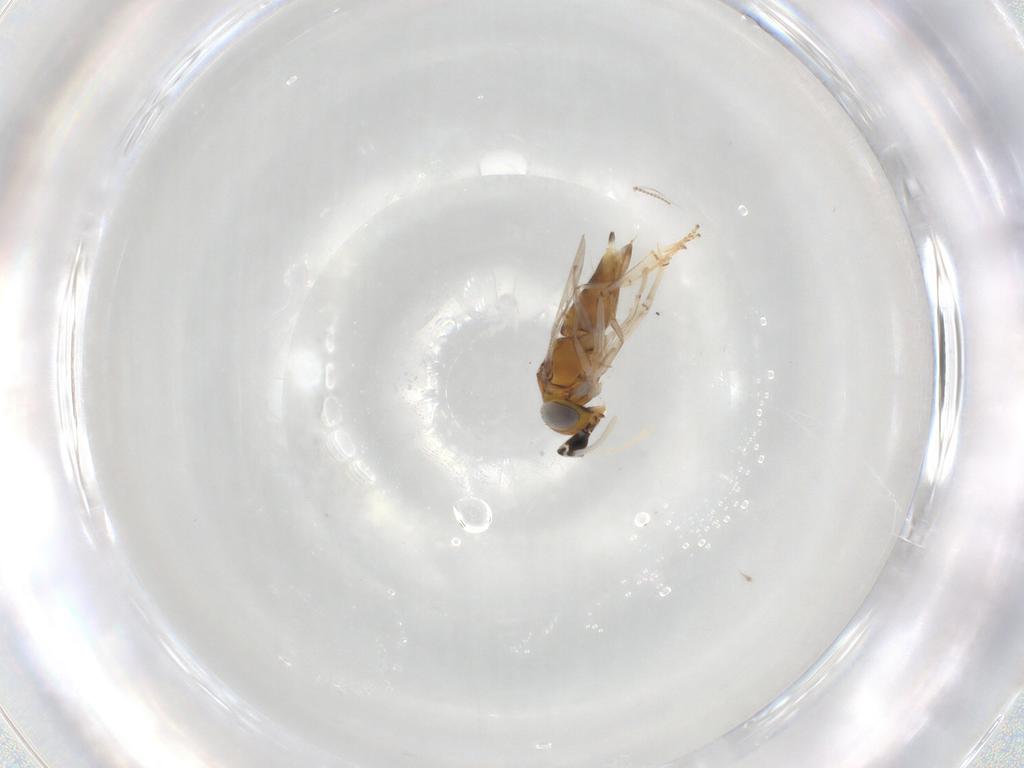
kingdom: Animalia
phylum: Arthropoda
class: Insecta
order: Hymenoptera
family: Encyrtidae
